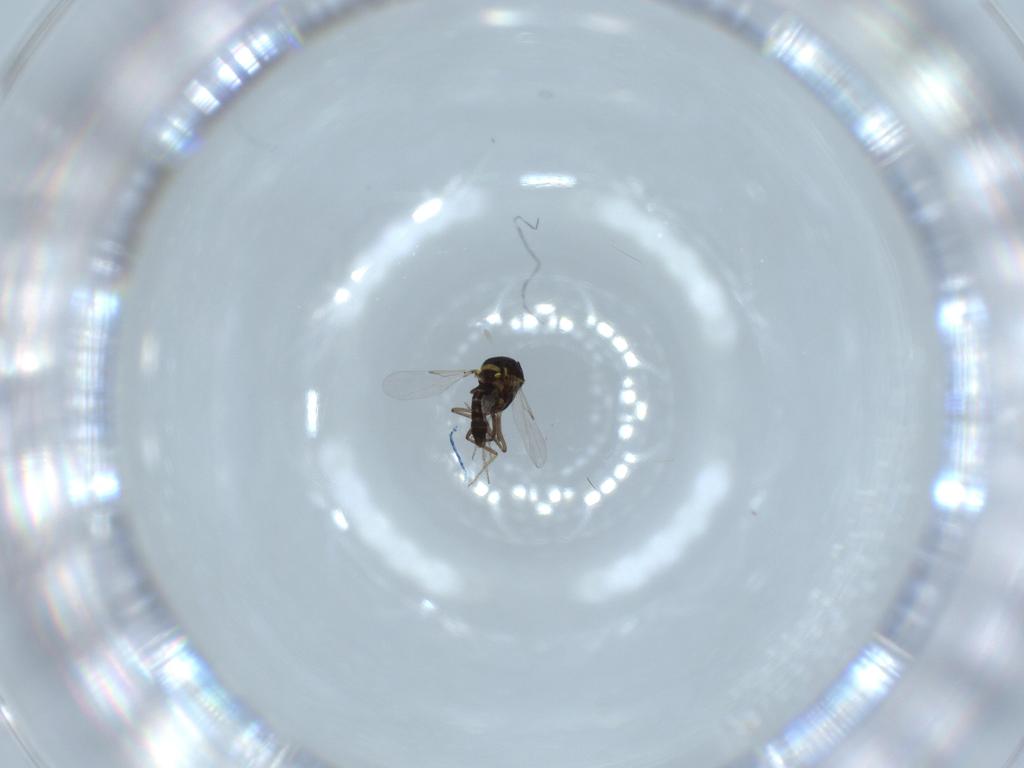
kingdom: Animalia
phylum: Arthropoda
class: Insecta
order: Diptera
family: Ceratopogonidae
